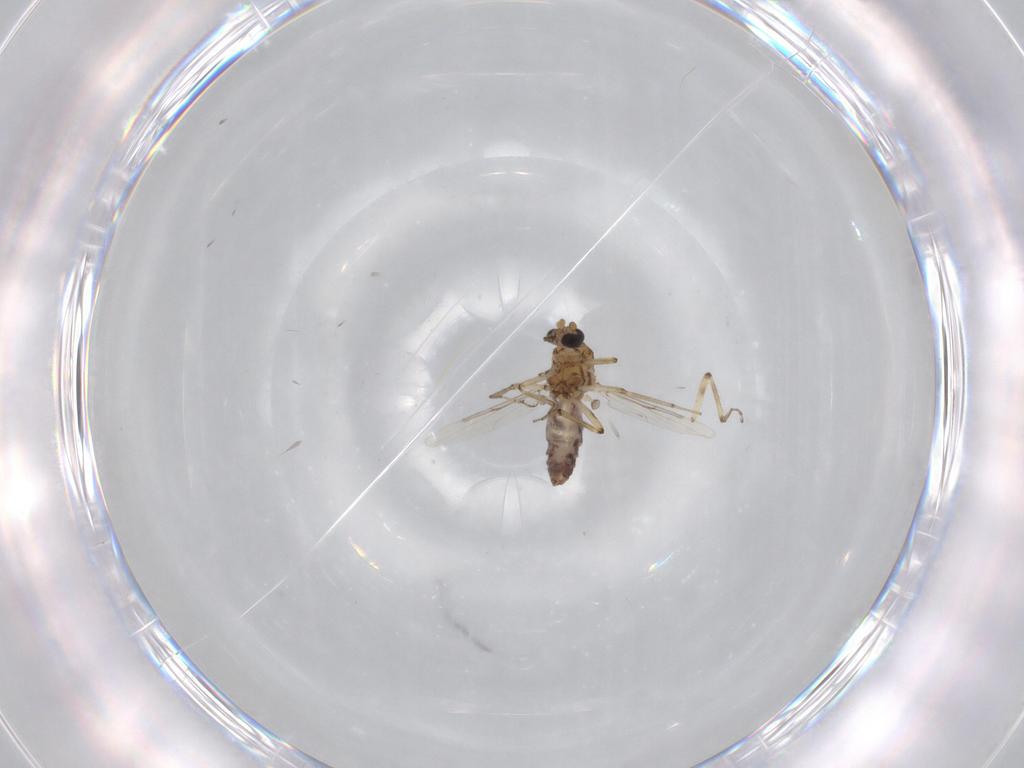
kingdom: Animalia
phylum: Arthropoda
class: Insecta
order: Diptera
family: Ceratopogonidae
